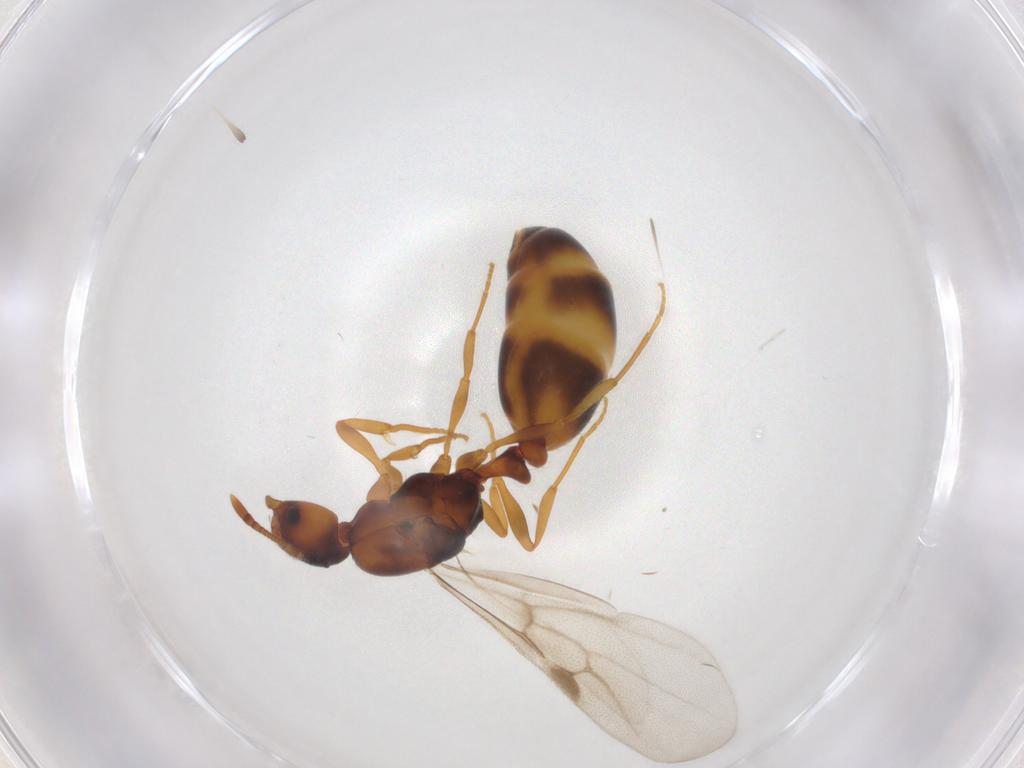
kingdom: Animalia
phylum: Arthropoda
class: Insecta
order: Hymenoptera
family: Formicidae
